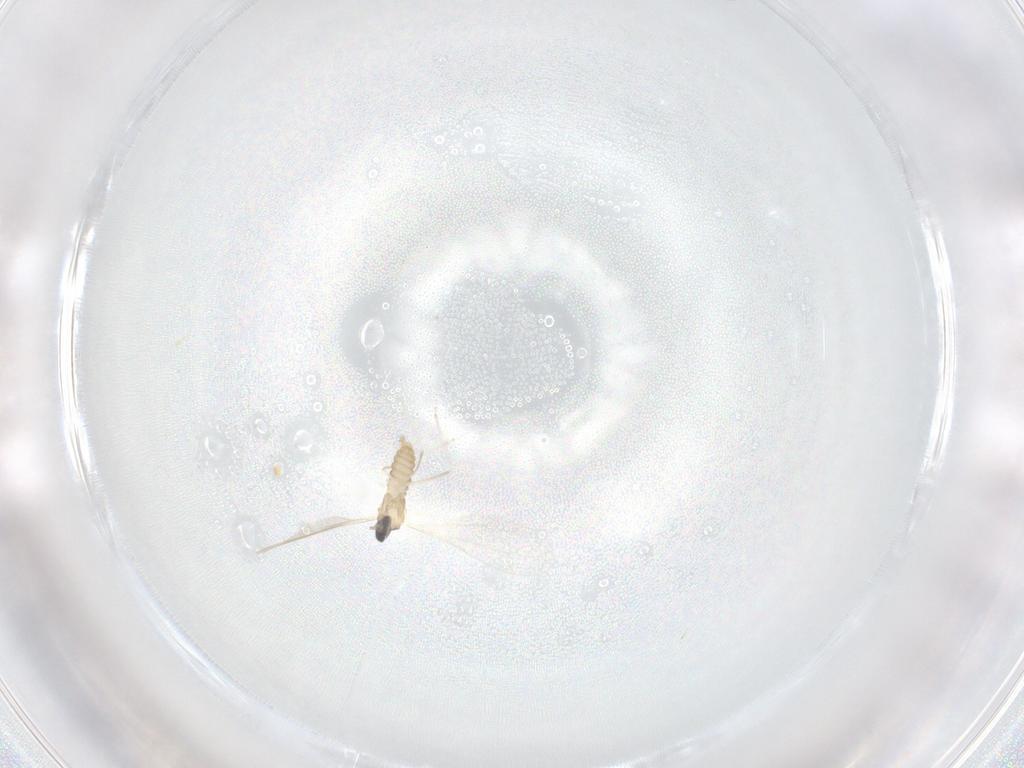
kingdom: Animalia
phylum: Arthropoda
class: Insecta
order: Diptera
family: Cecidomyiidae
